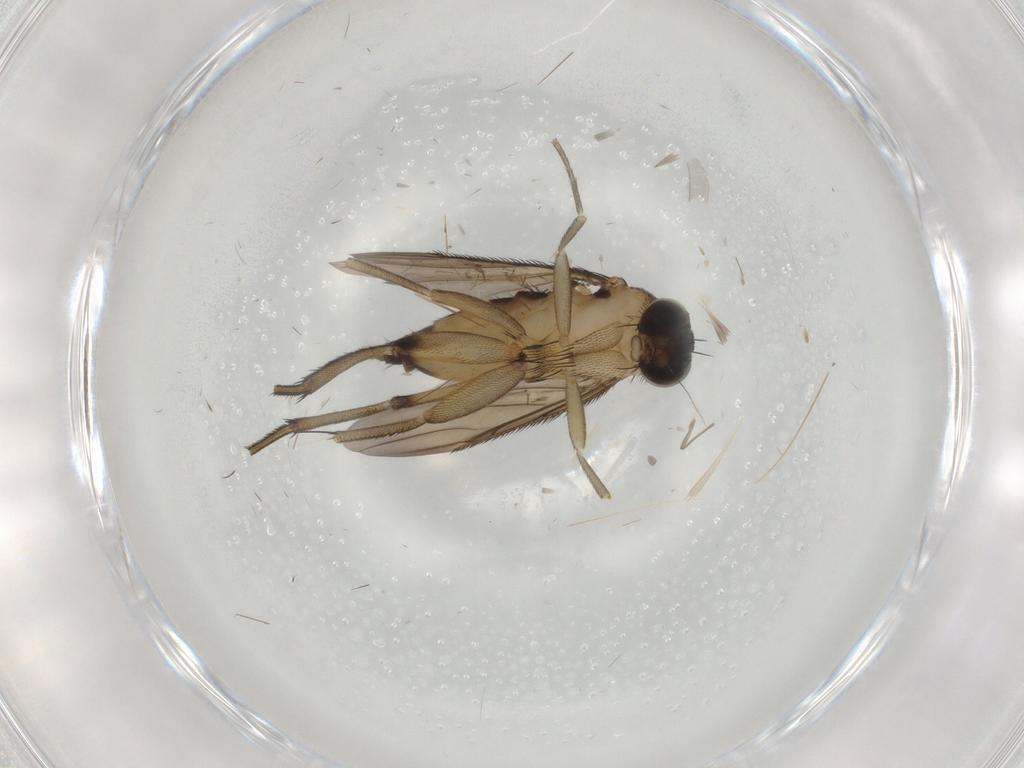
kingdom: Animalia
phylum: Arthropoda
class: Insecta
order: Diptera
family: Phoridae
